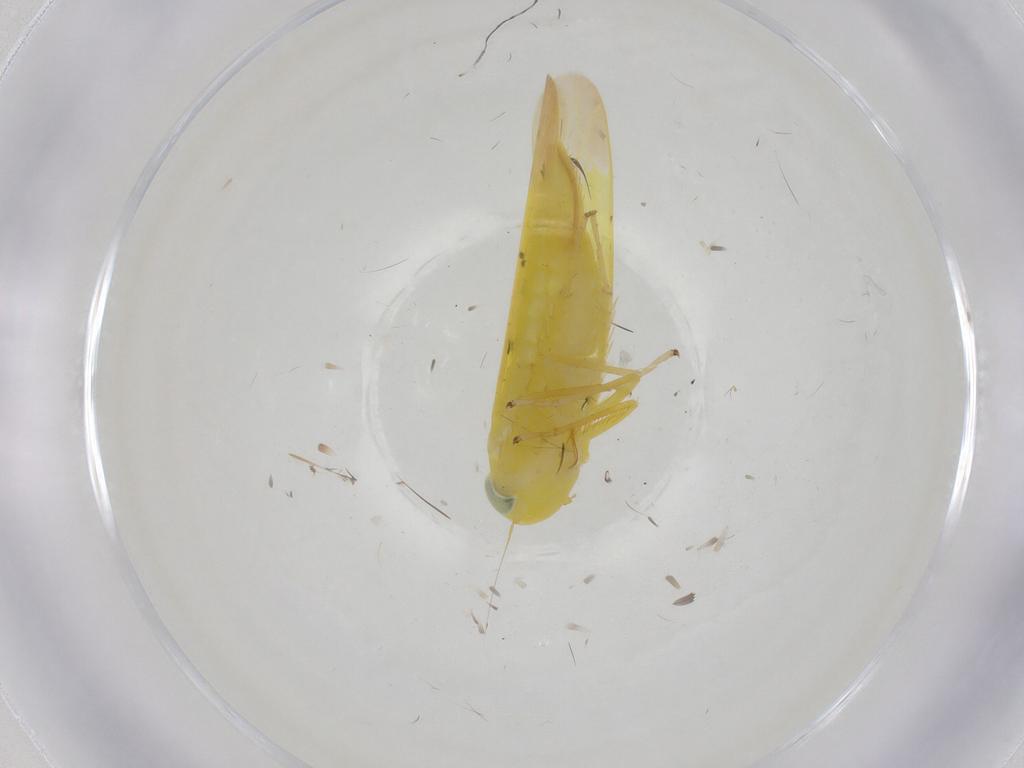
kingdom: Animalia
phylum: Arthropoda
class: Insecta
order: Hemiptera
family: Cicadellidae
